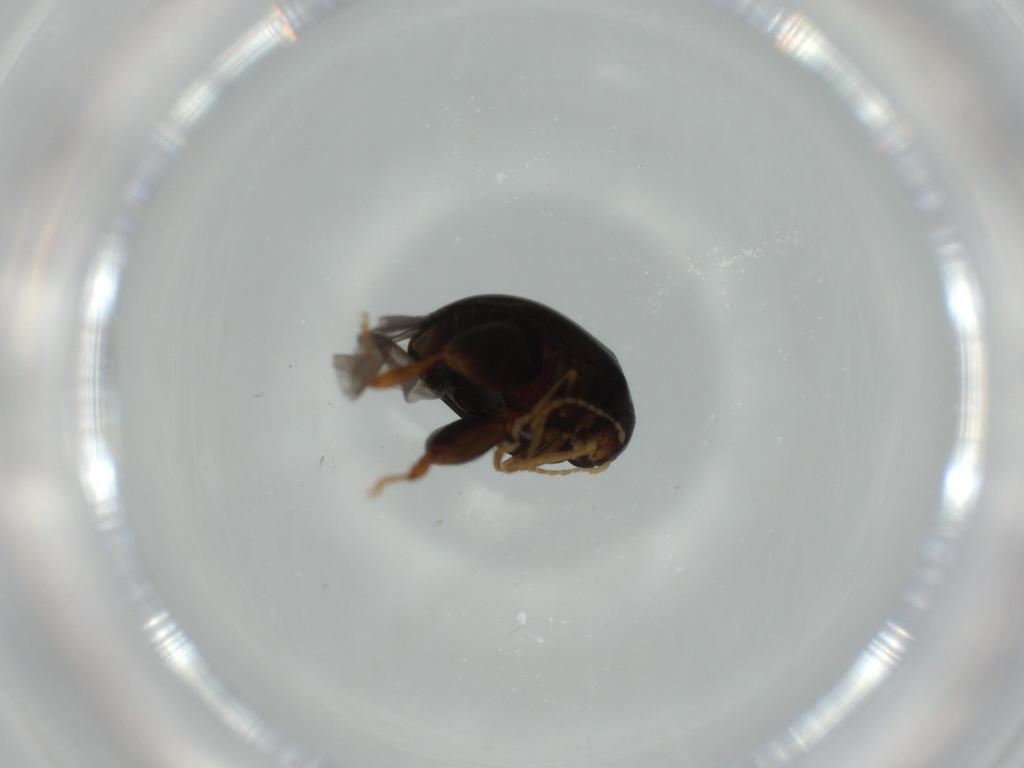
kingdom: Animalia
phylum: Arthropoda
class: Insecta
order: Coleoptera
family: Chrysomelidae
